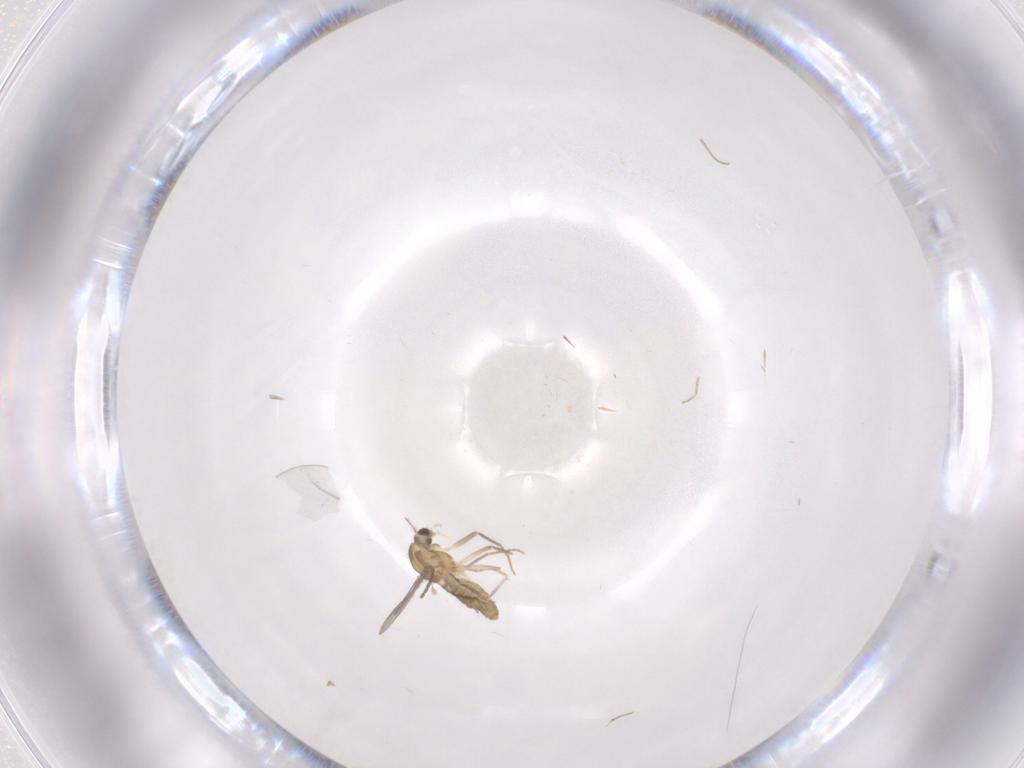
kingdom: Animalia
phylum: Arthropoda
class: Insecta
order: Diptera
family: Chironomidae
